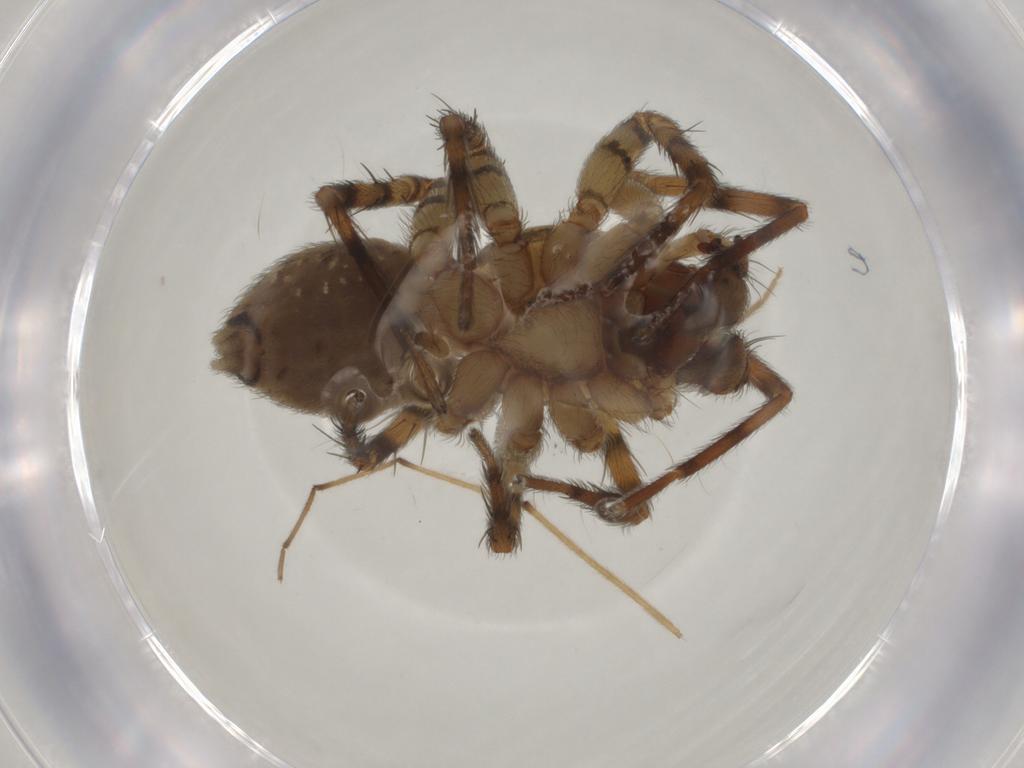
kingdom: Animalia
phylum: Arthropoda
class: Arachnida
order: Araneae
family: Amaurobiidae
